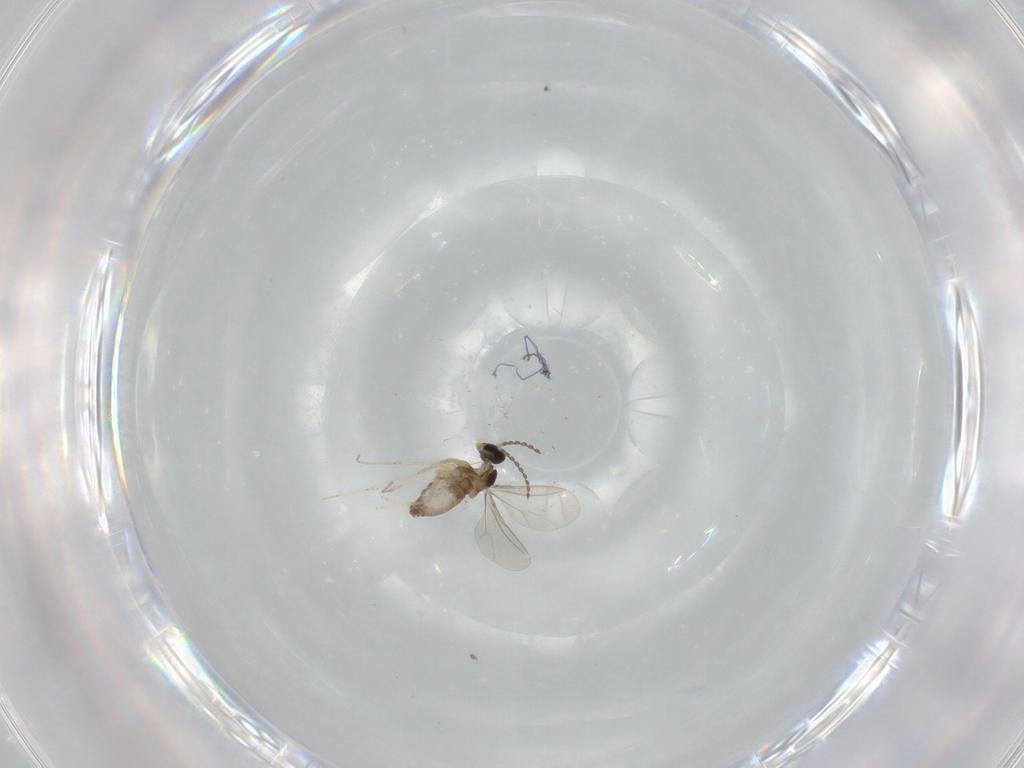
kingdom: Animalia
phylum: Arthropoda
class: Insecta
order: Diptera
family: Cecidomyiidae
